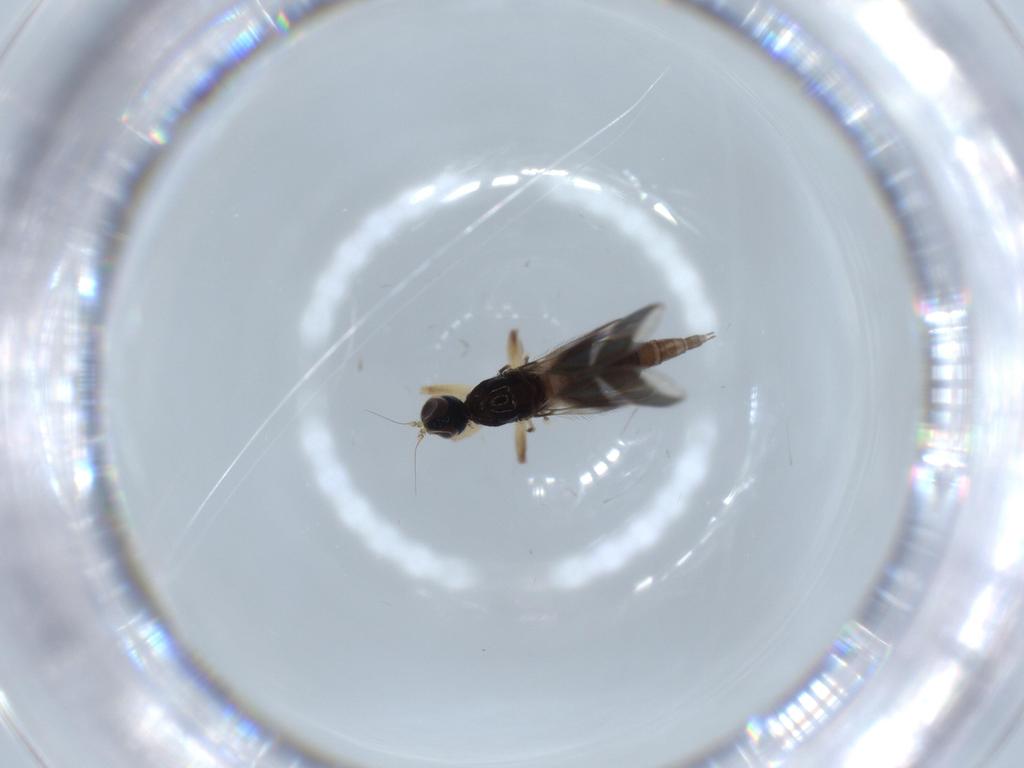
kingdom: Animalia
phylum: Arthropoda
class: Insecta
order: Diptera
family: Hybotidae
